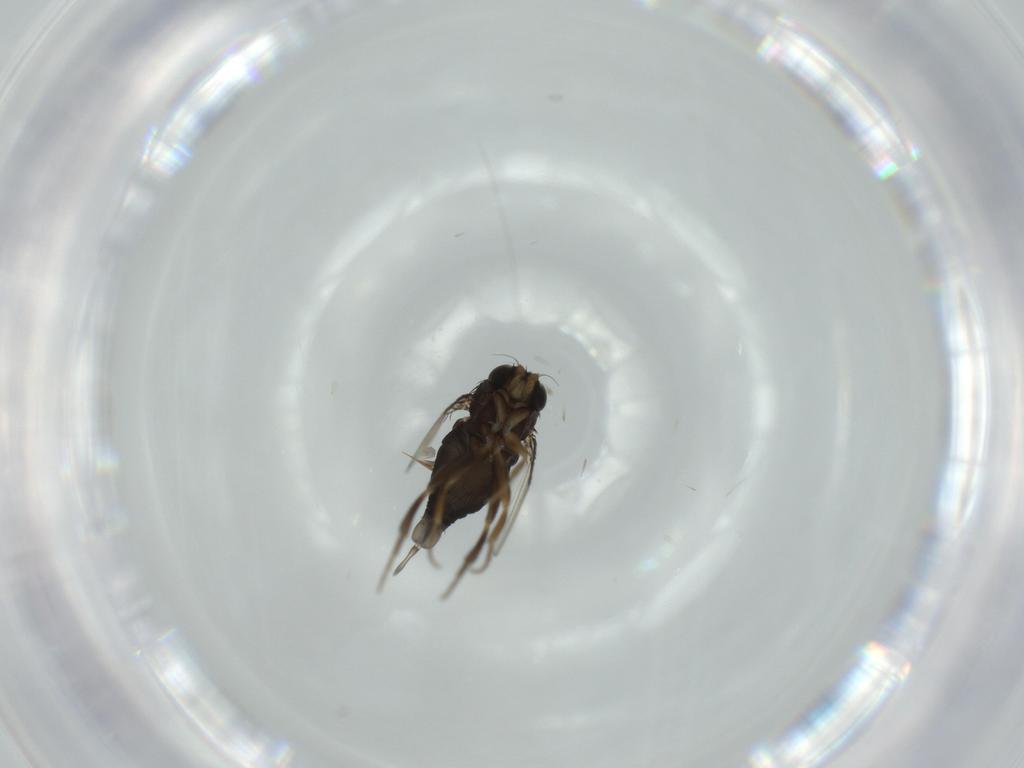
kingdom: Animalia
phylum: Arthropoda
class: Insecta
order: Diptera
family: Phoridae
